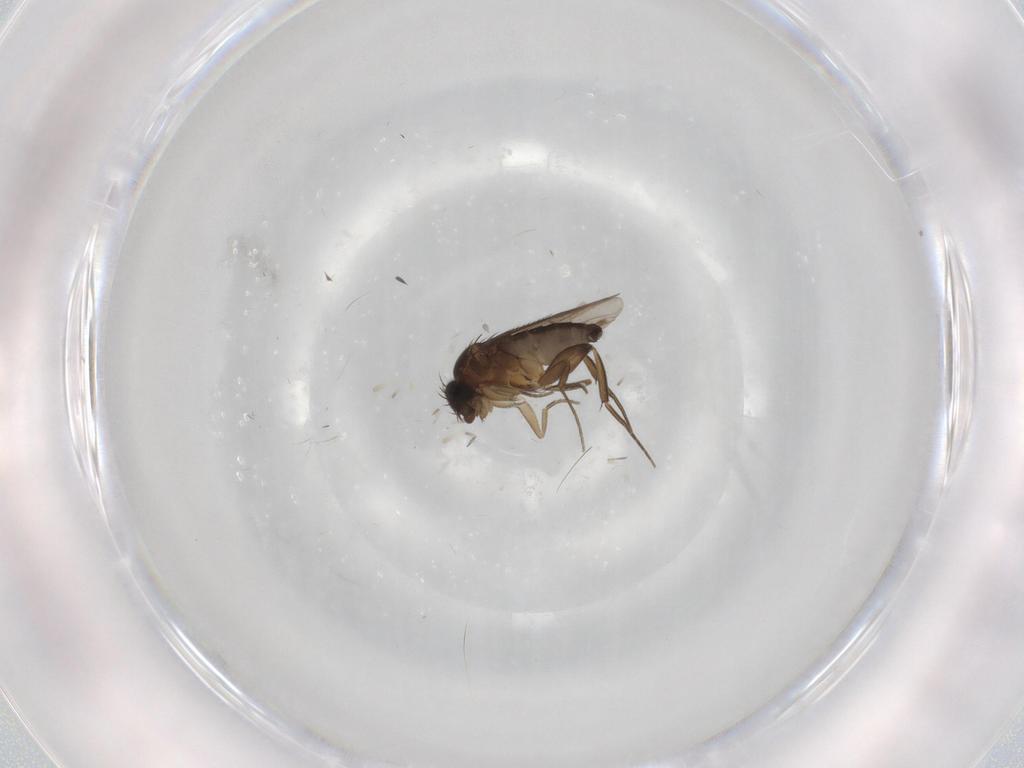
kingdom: Animalia
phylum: Arthropoda
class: Insecta
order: Diptera
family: Phoridae
